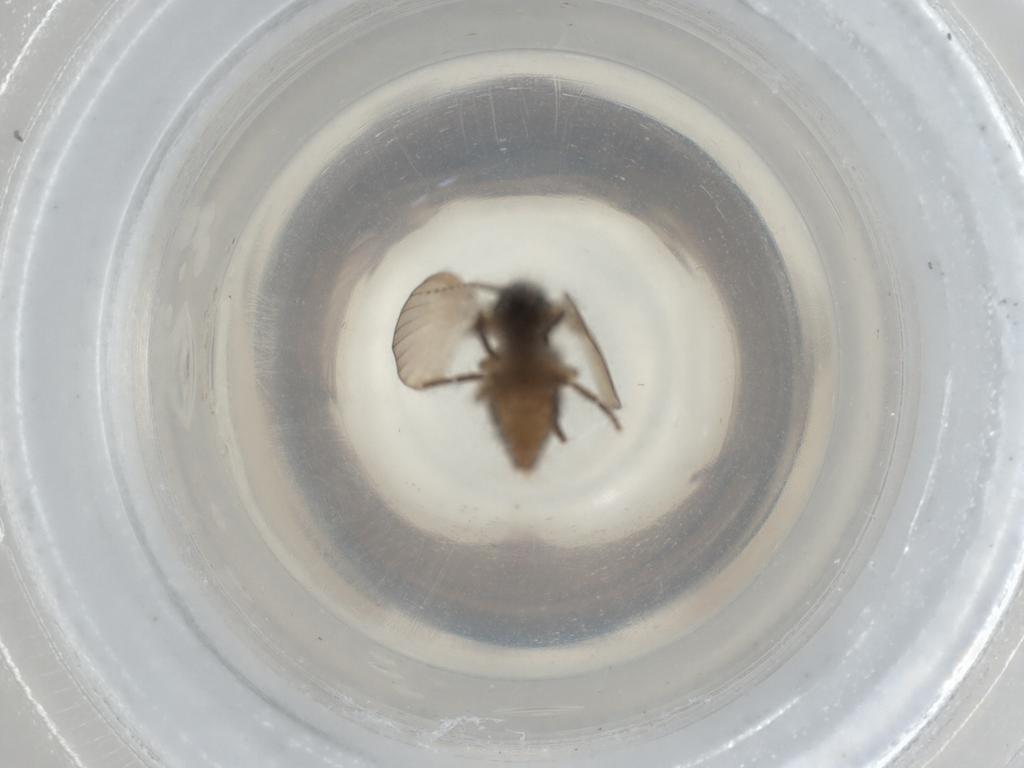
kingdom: Animalia
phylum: Arthropoda
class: Insecta
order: Diptera
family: Psychodidae
